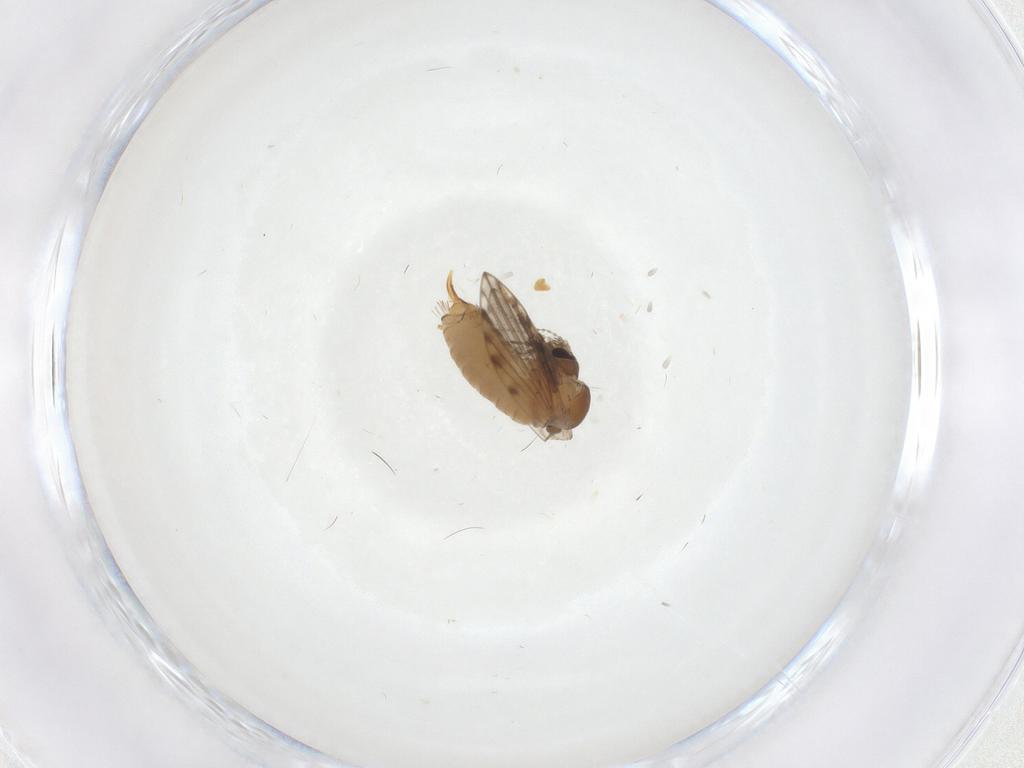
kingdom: Animalia
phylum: Arthropoda
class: Insecta
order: Diptera
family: Psychodidae
